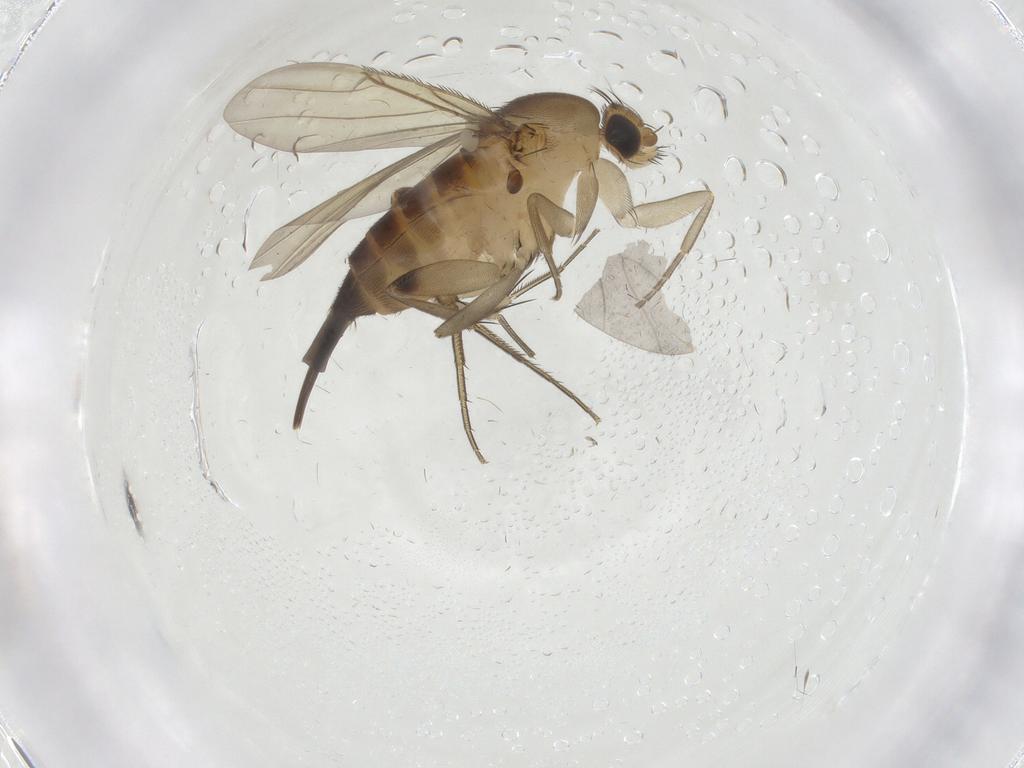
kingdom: Animalia
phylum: Arthropoda
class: Insecta
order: Diptera
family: Sciaridae
